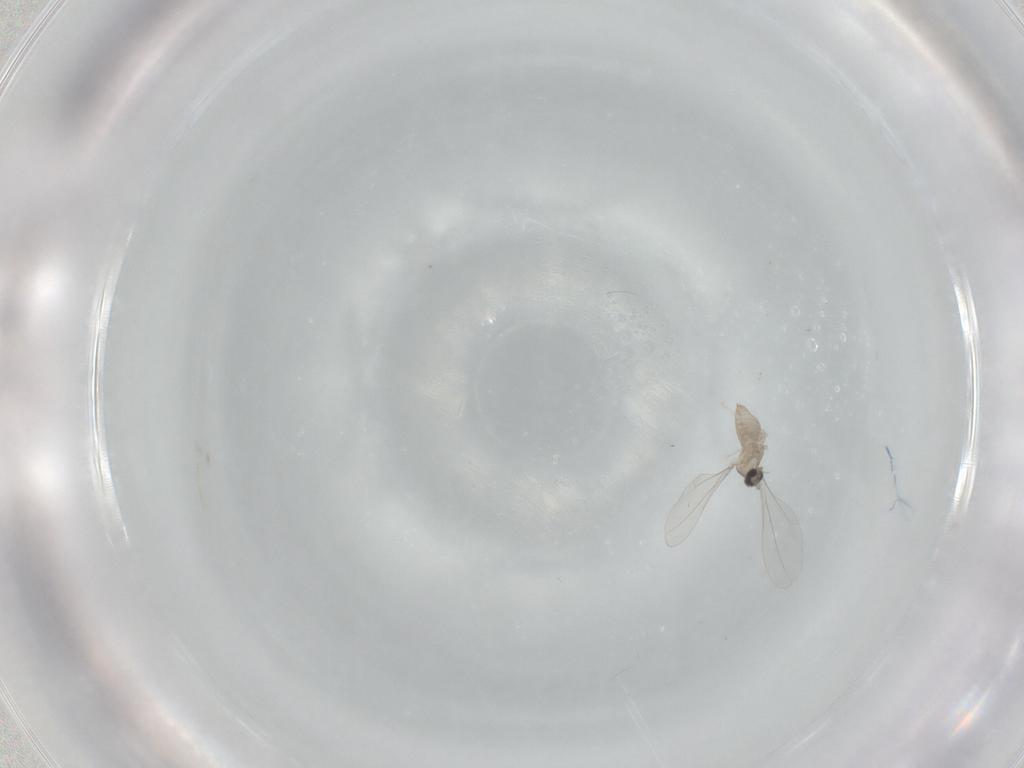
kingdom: Animalia
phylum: Arthropoda
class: Insecta
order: Diptera
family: Cecidomyiidae
